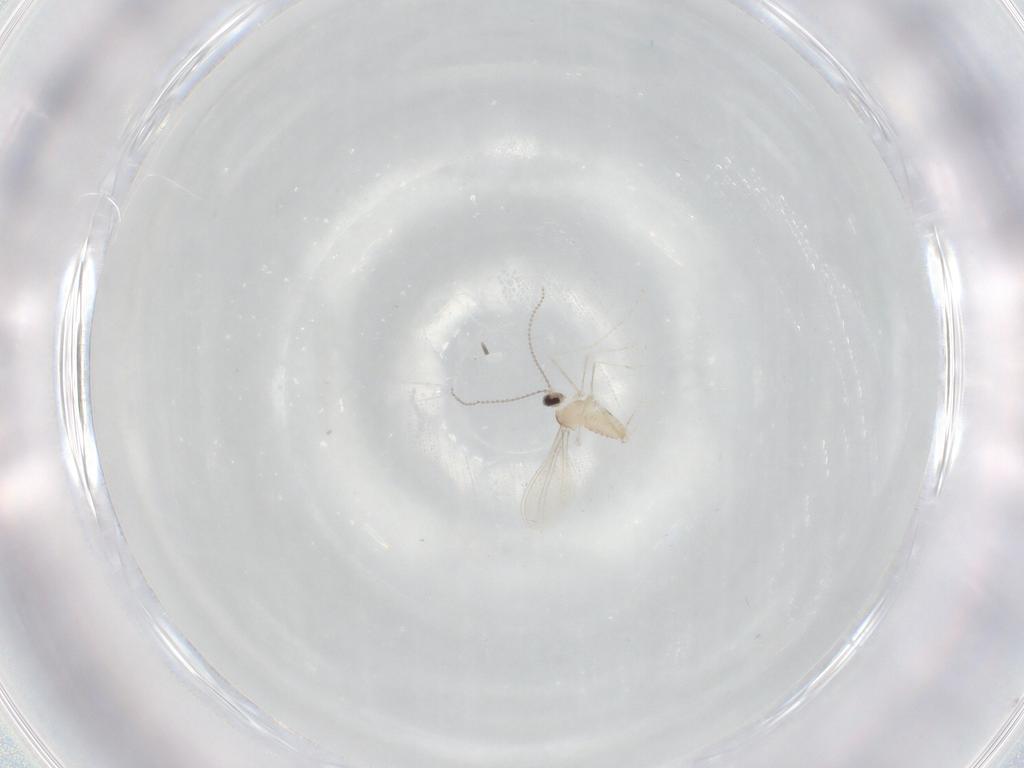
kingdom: Animalia
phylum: Arthropoda
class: Insecta
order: Diptera
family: Cecidomyiidae
